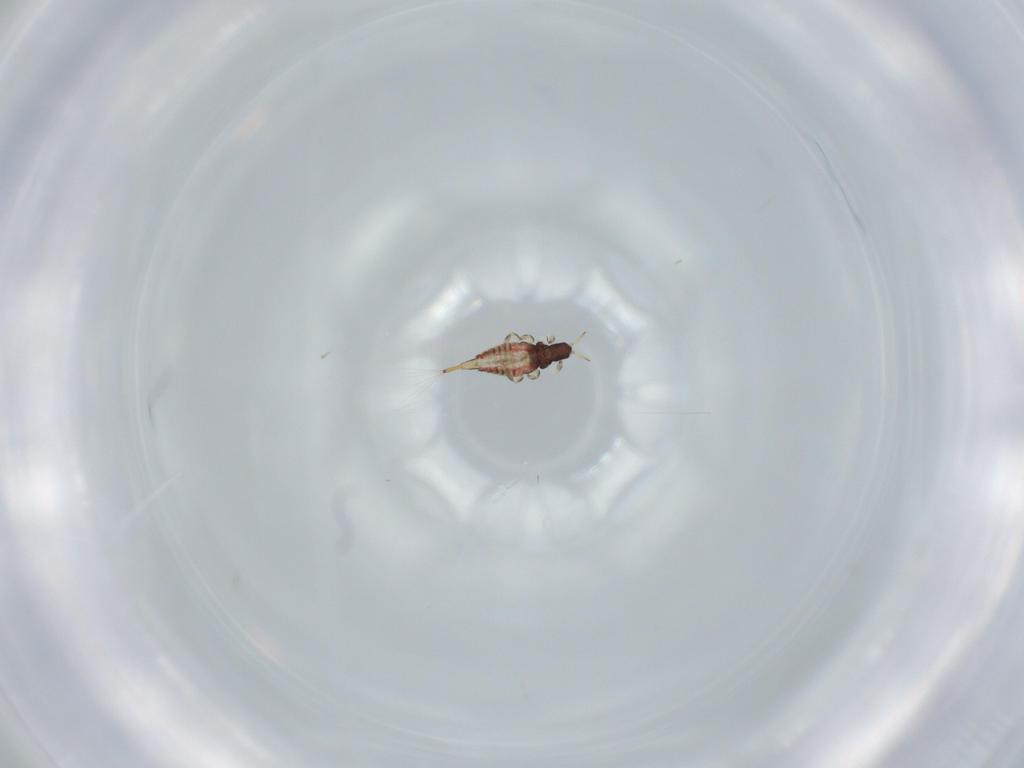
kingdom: Animalia
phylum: Arthropoda
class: Insecta
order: Thysanoptera
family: Phlaeothripidae
